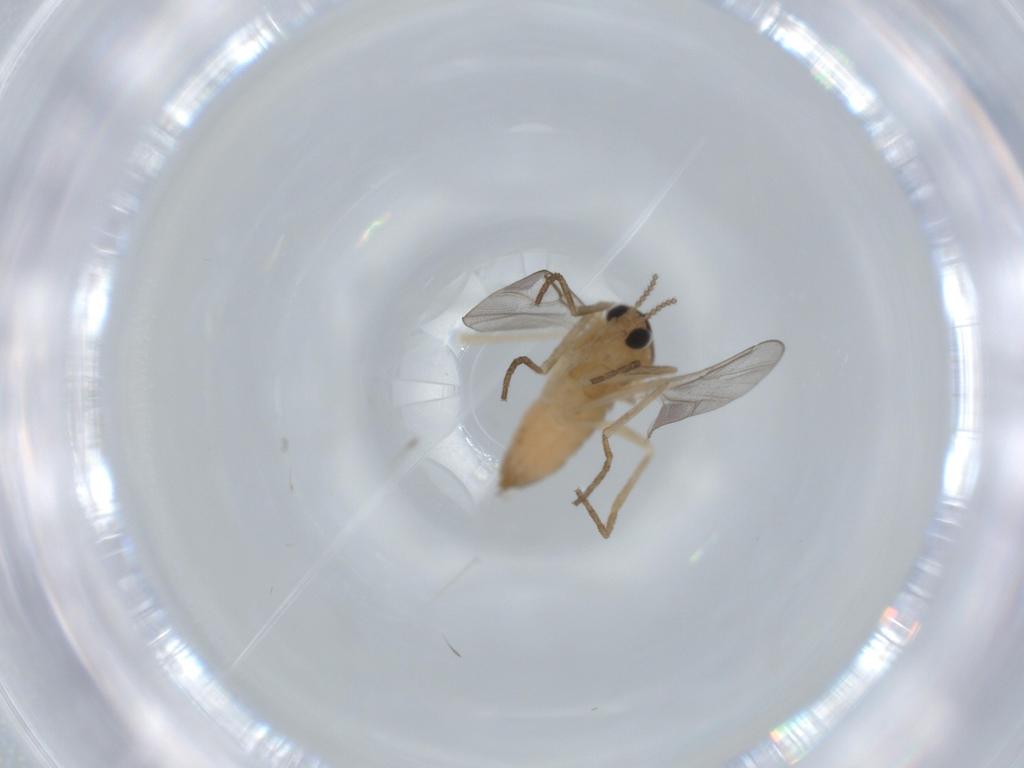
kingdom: Animalia
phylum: Arthropoda
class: Insecta
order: Diptera
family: Cecidomyiidae
